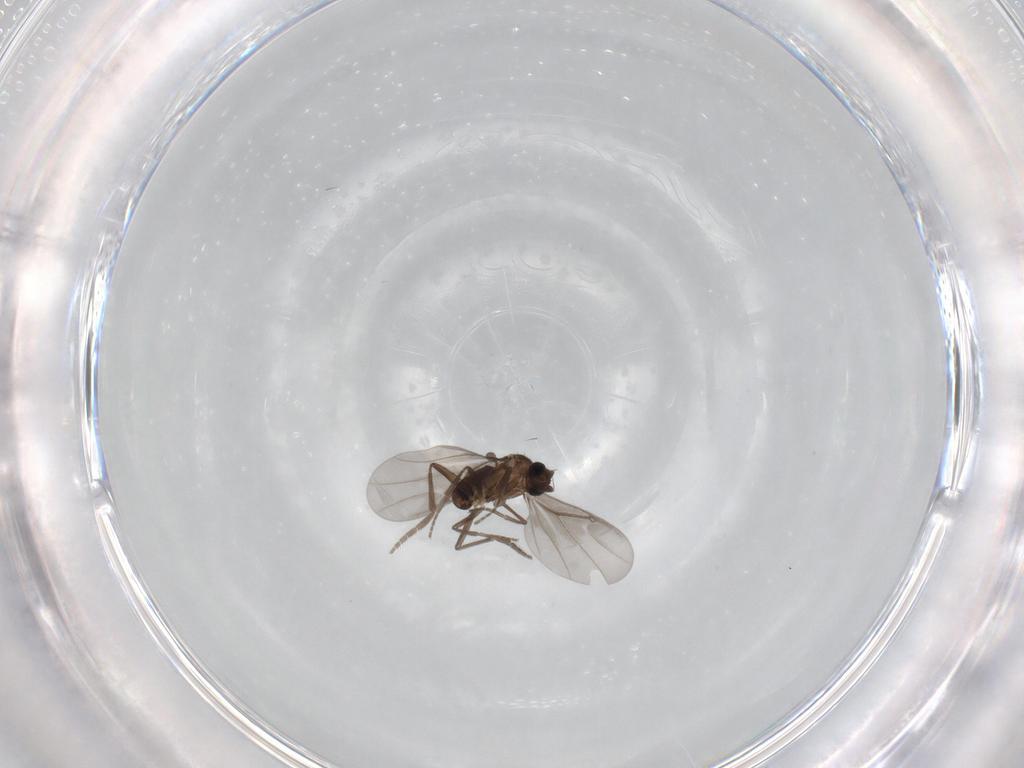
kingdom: Animalia
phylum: Arthropoda
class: Insecta
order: Diptera
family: Phoridae
